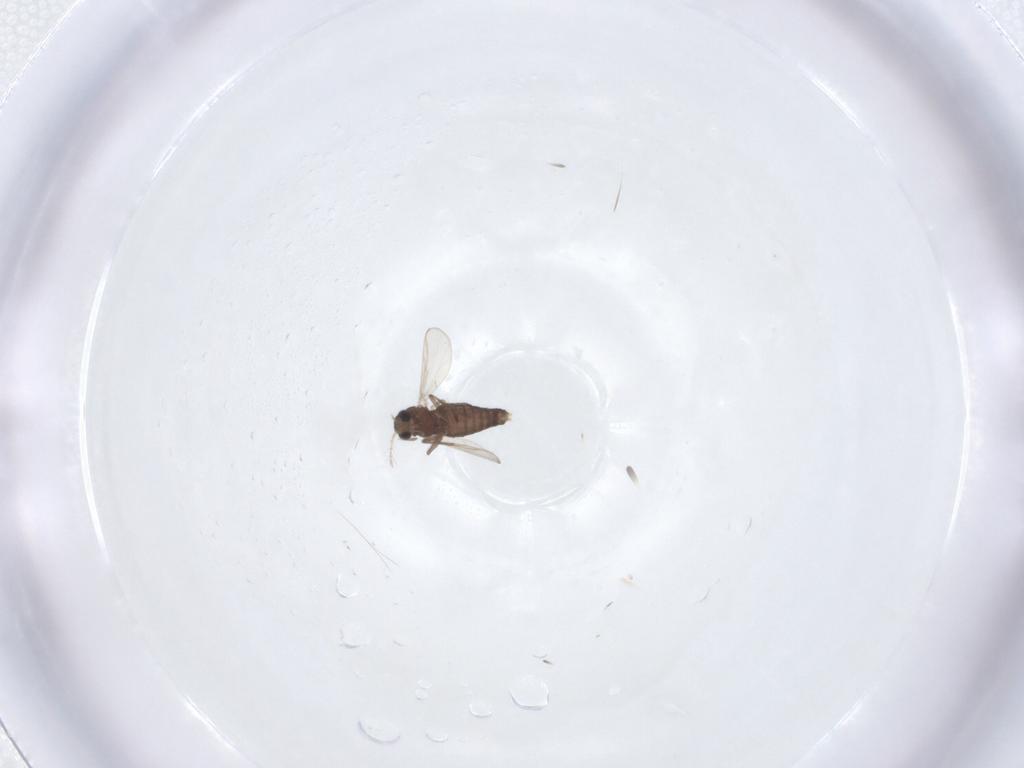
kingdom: Animalia
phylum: Arthropoda
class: Insecta
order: Diptera
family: Chironomidae
